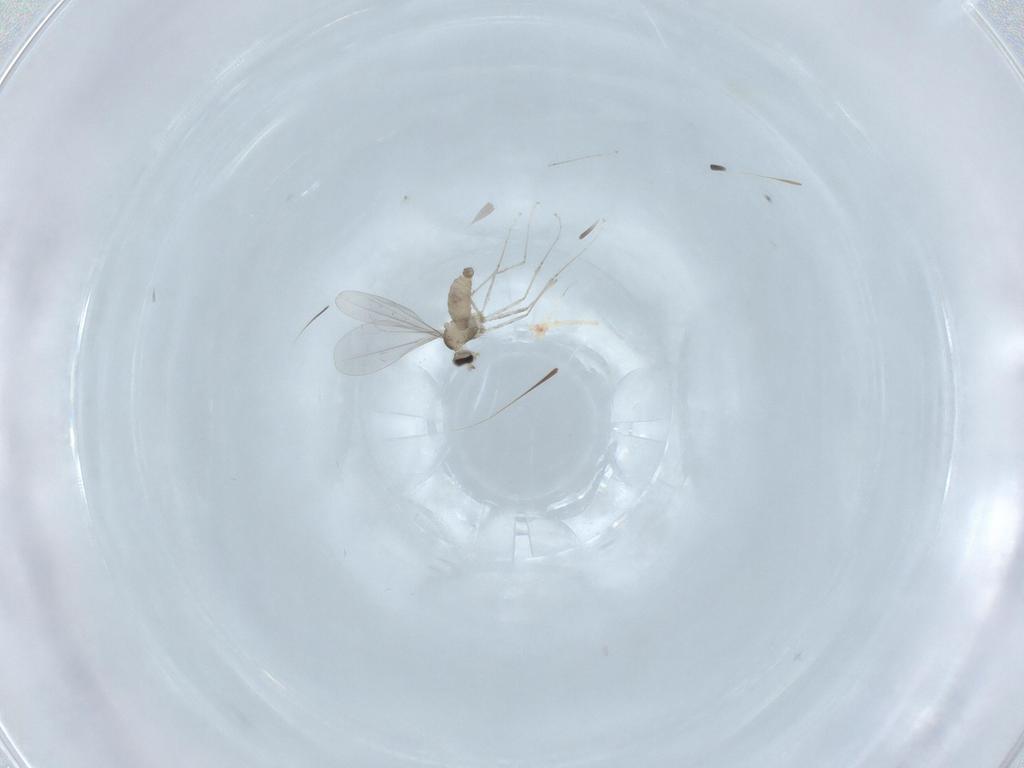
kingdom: Animalia
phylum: Arthropoda
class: Insecta
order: Diptera
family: Cecidomyiidae
